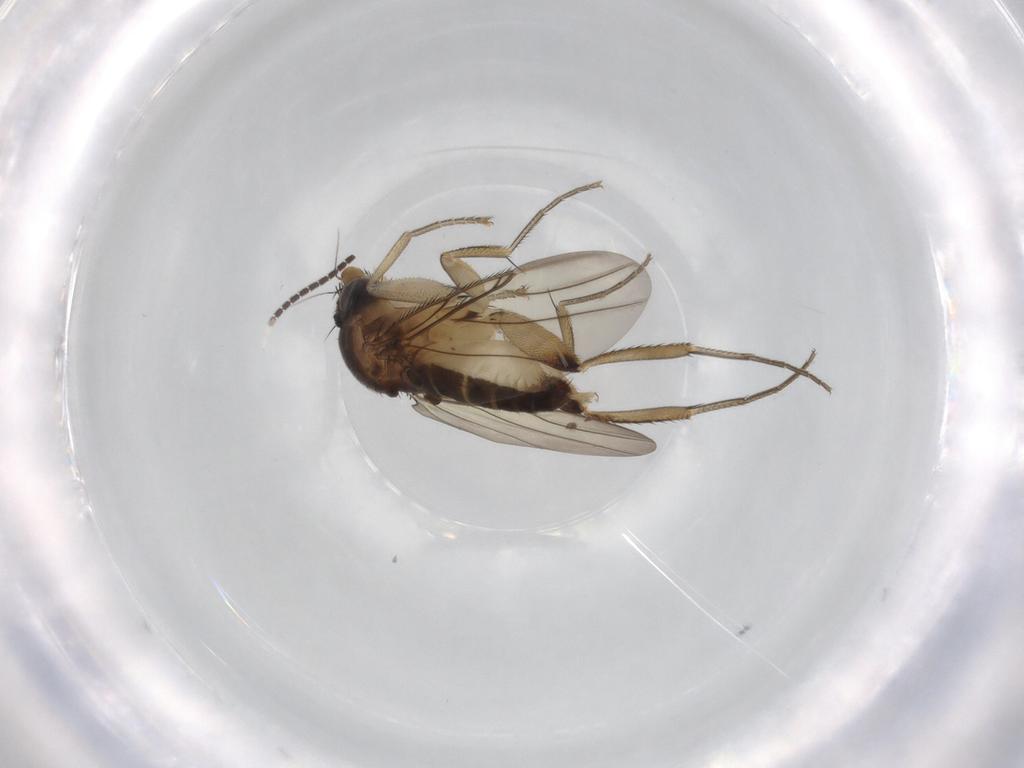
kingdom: Animalia
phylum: Arthropoda
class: Insecta
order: Diptera
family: Phoridae
